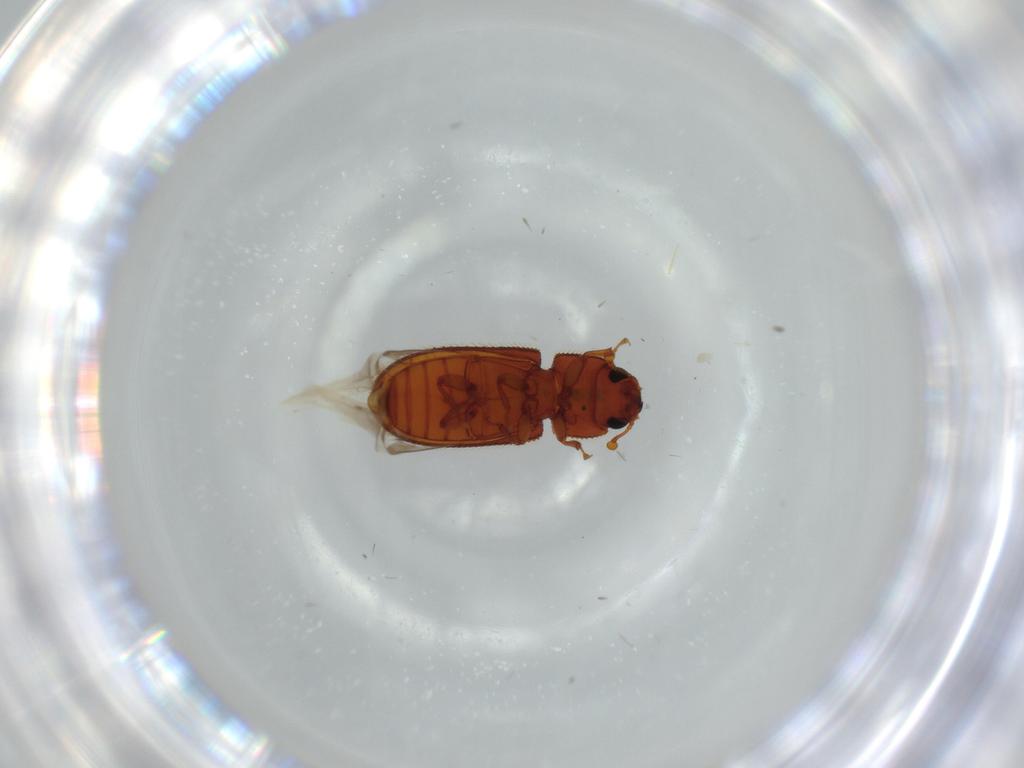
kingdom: Animalia
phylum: Arthropoda
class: Insecta
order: Coleoptera
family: Zopheridae
